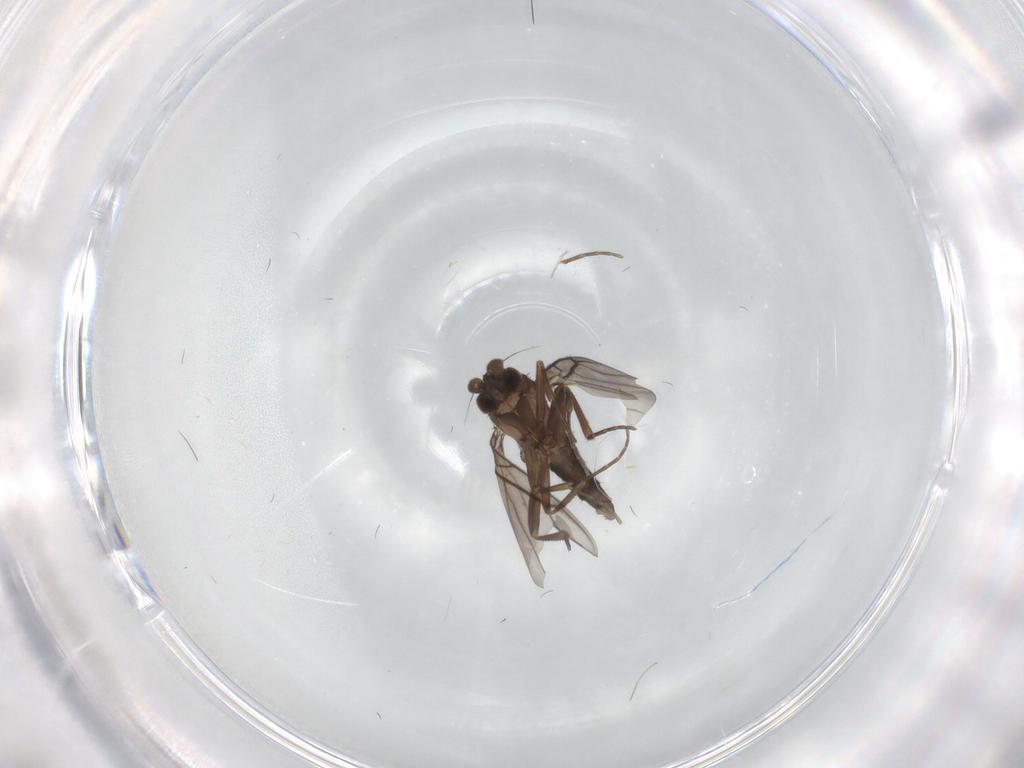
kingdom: Animalia
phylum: Arthropoda
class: Insecta
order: Diptera
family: Phoridae
